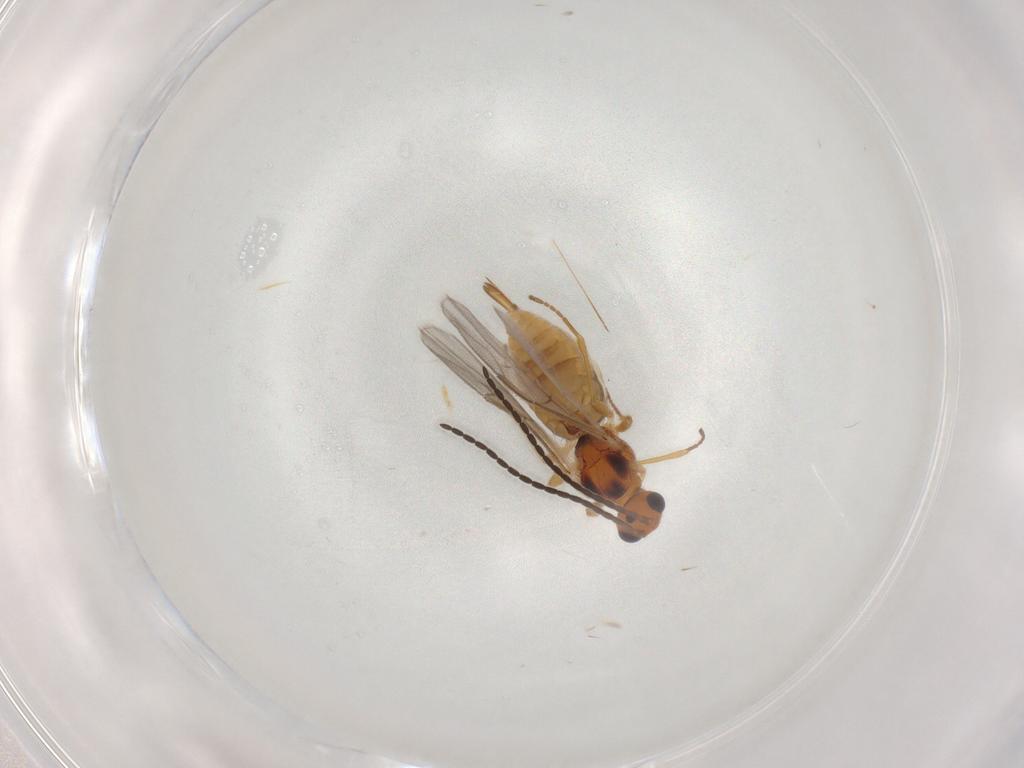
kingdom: Animalia
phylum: Arthropoda
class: Insecta
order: Hymenoptera
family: Braconidae
